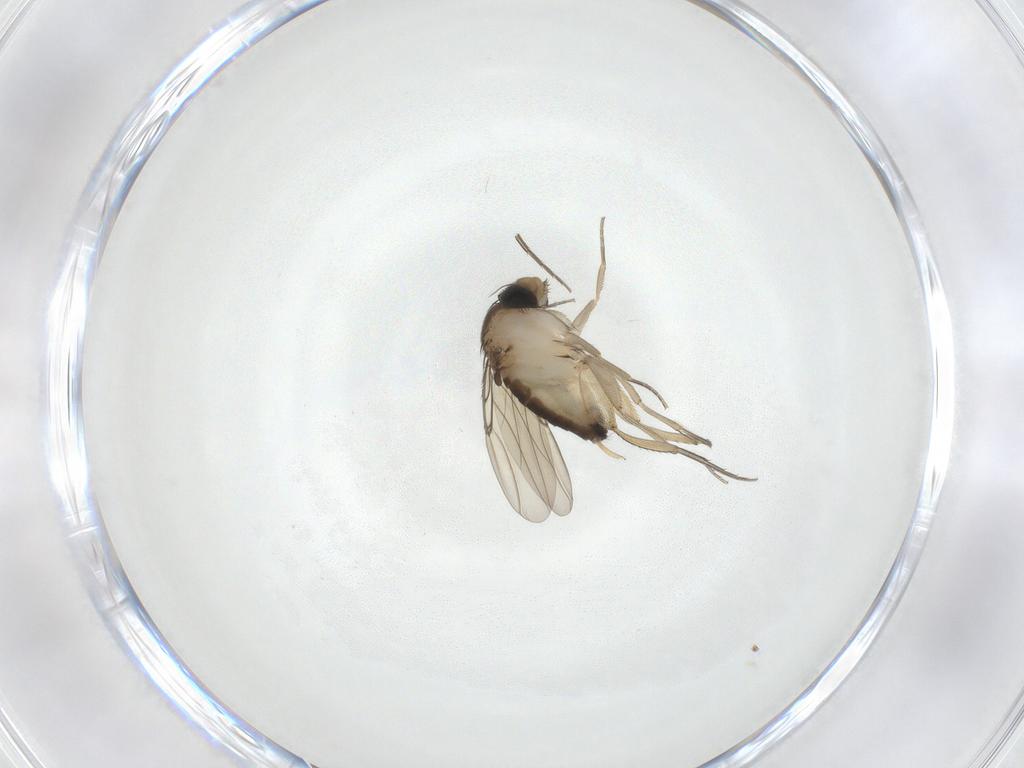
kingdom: Animalia
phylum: Arthropoda
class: Insecta
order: Diptera
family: Phoridae
